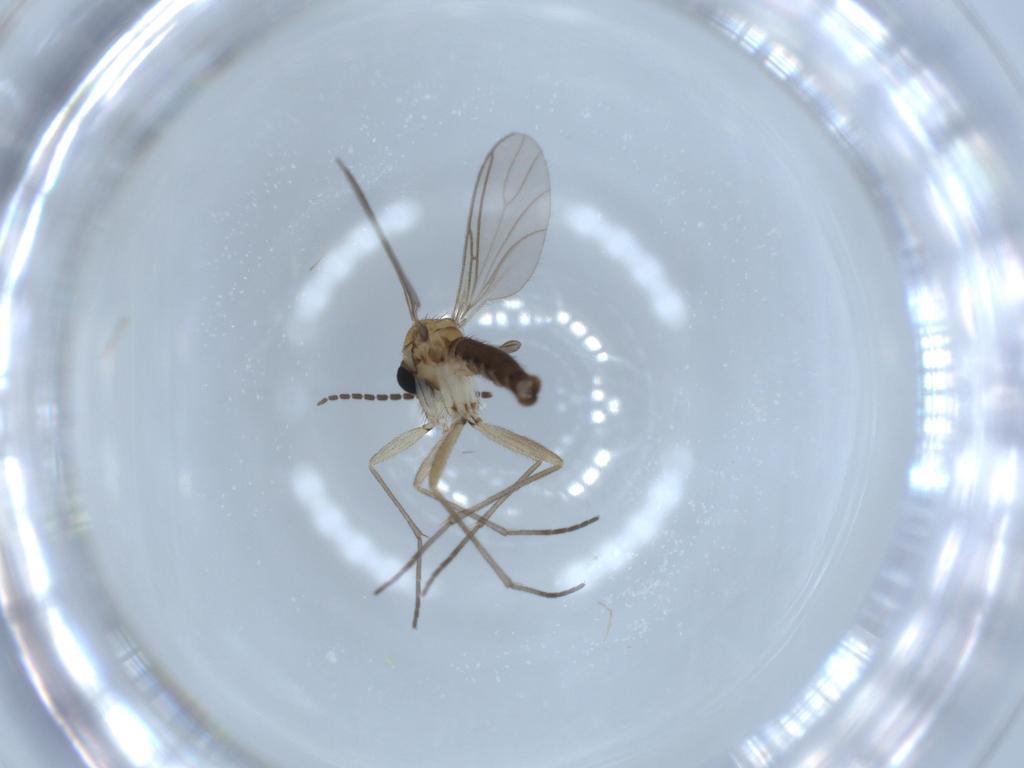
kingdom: Animalia
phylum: Arthropoda
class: Insecta
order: Diptera
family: Sciaridae
